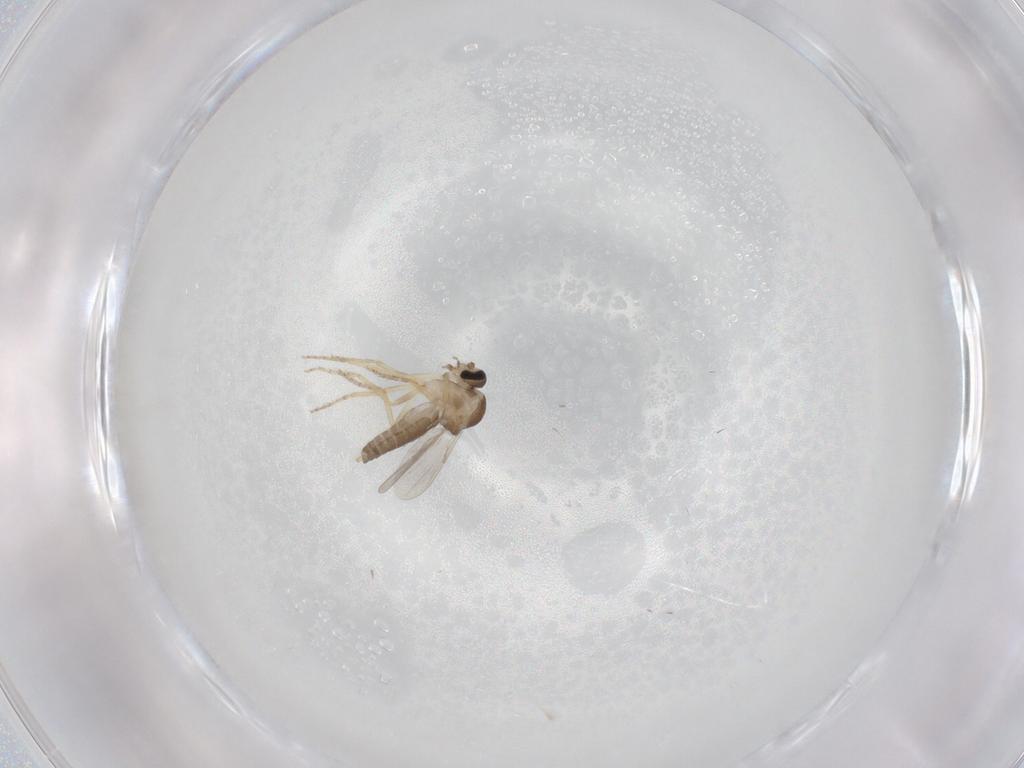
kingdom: Animalia
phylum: Arthropoda
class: Insecta
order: Diptera
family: Ceratopogonidae
